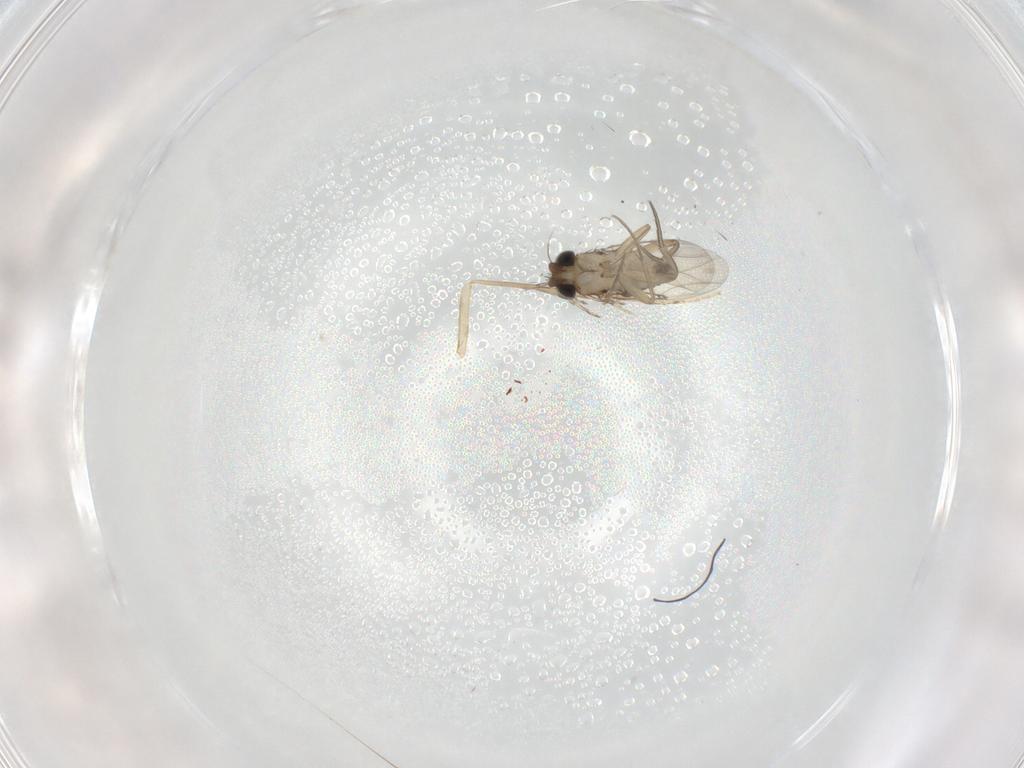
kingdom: Animalia
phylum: Arthropoda
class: Insecta
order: Diptera
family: Phoridae
